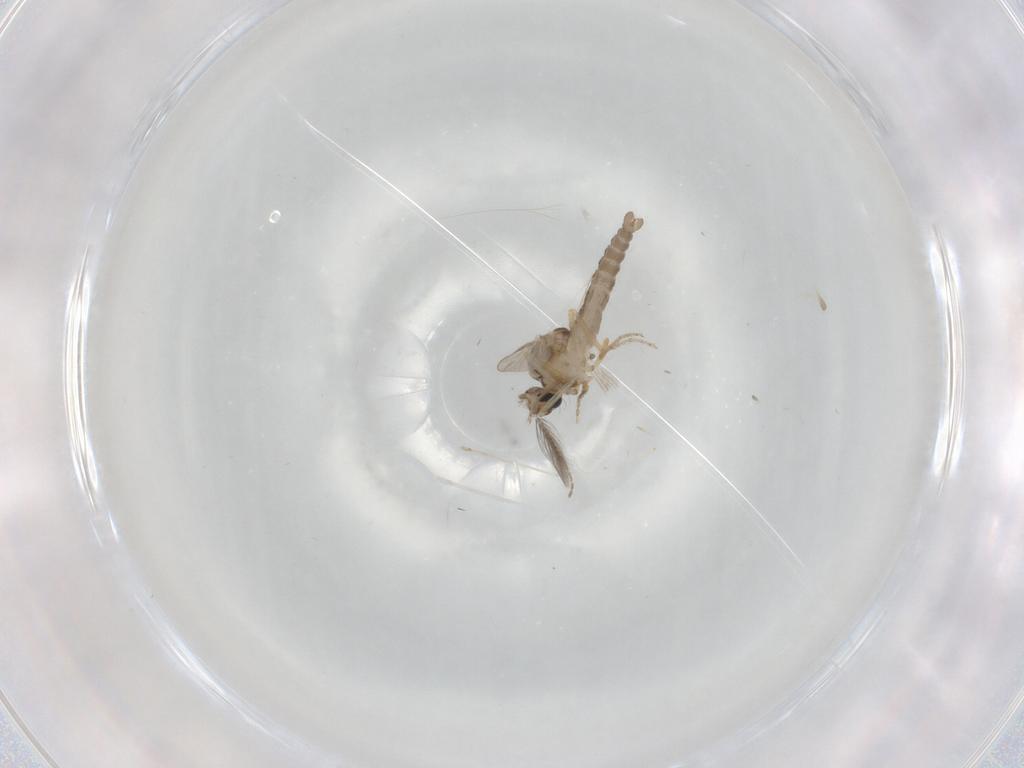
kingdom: Animalia
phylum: Arthropoda
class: Insecta
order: Diptera
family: Ceratopogonidae
